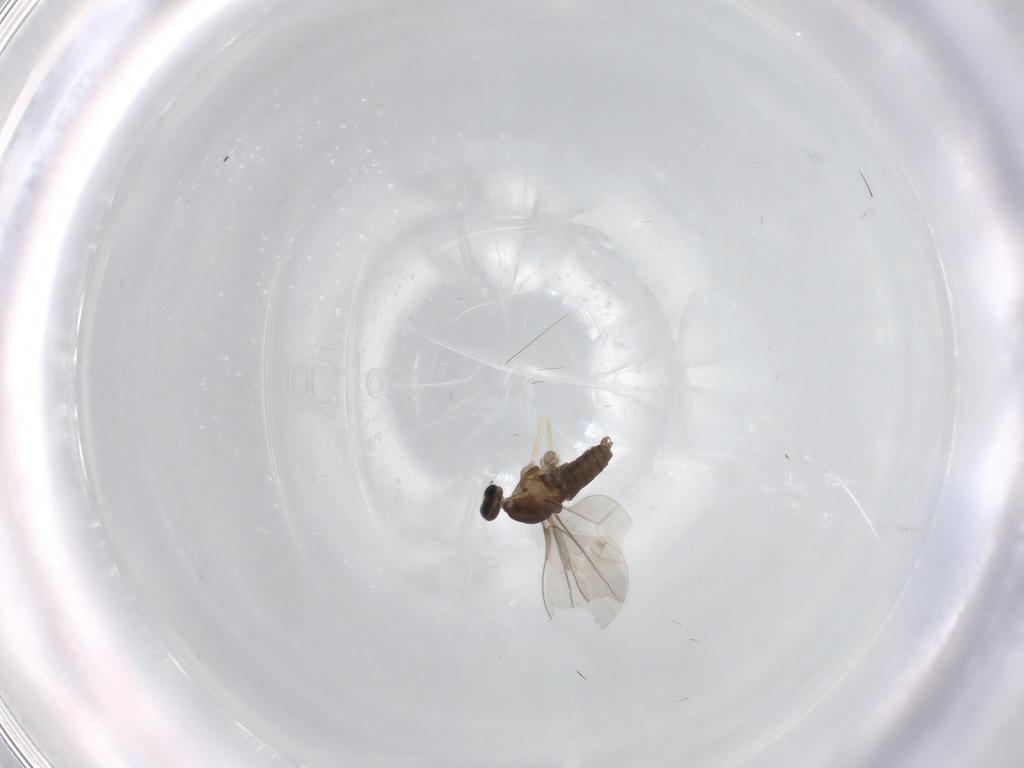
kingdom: Animalia
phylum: Arthropoda
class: Insecta
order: Diptera
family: Cecidomyiidae
